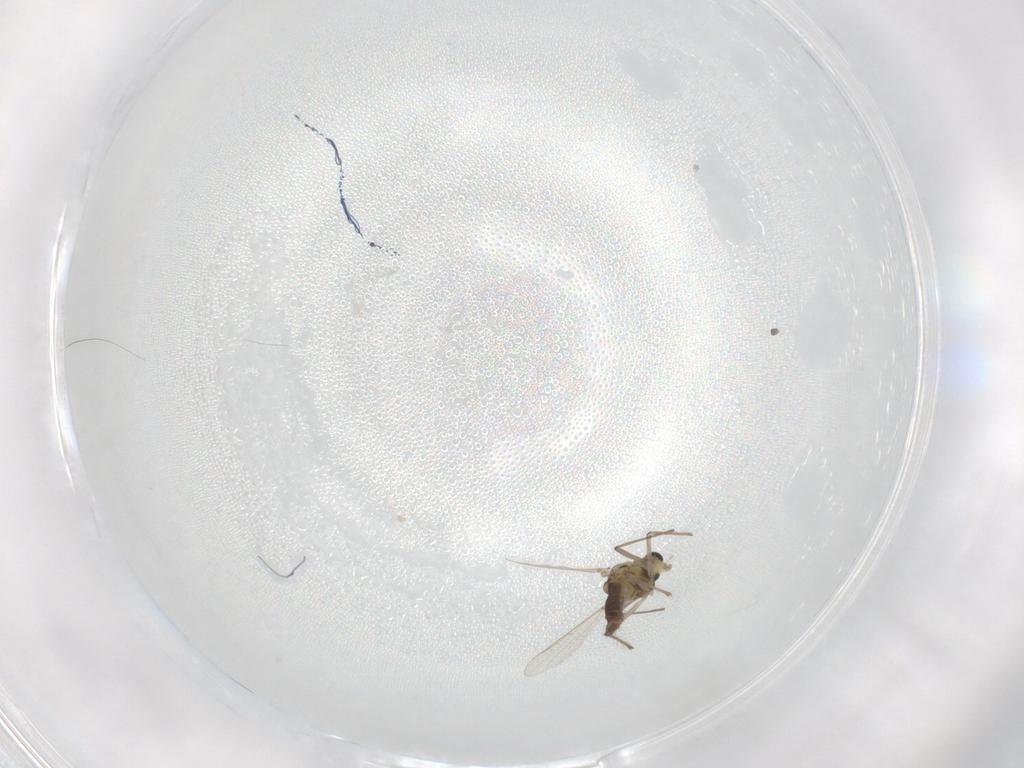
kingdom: Animalia
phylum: Arthropoda
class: Insecta
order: Diptera
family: Chironomidae
